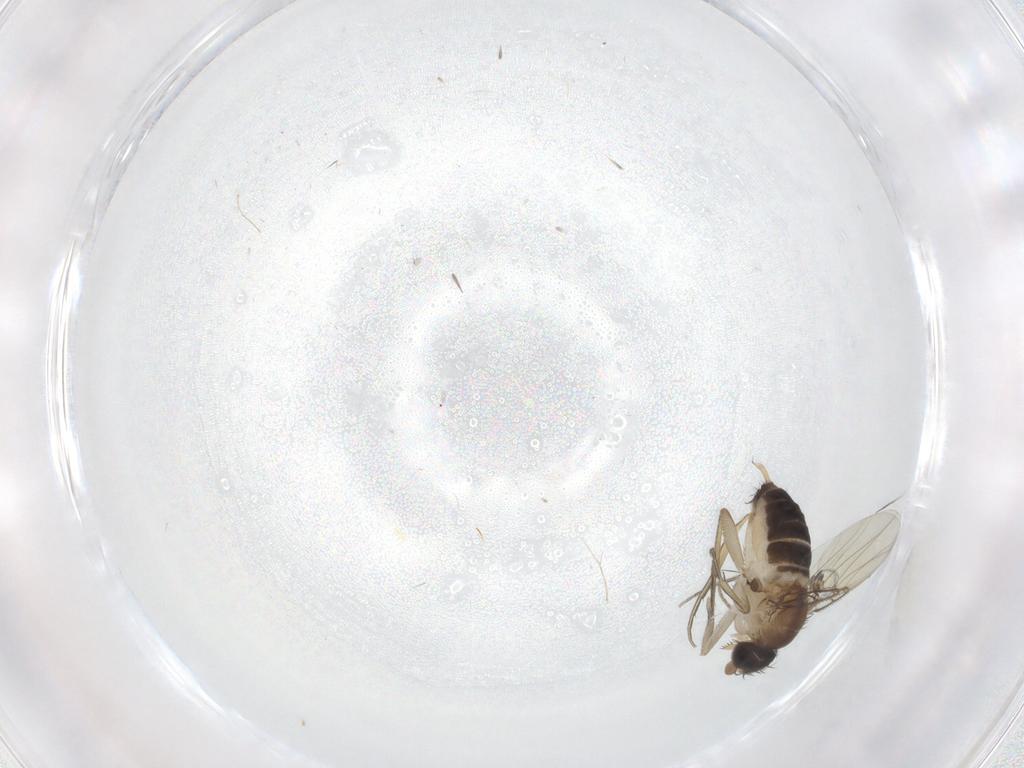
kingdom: Animalia
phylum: Arthropoda
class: Insecta
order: Diptera
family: Phoridae
